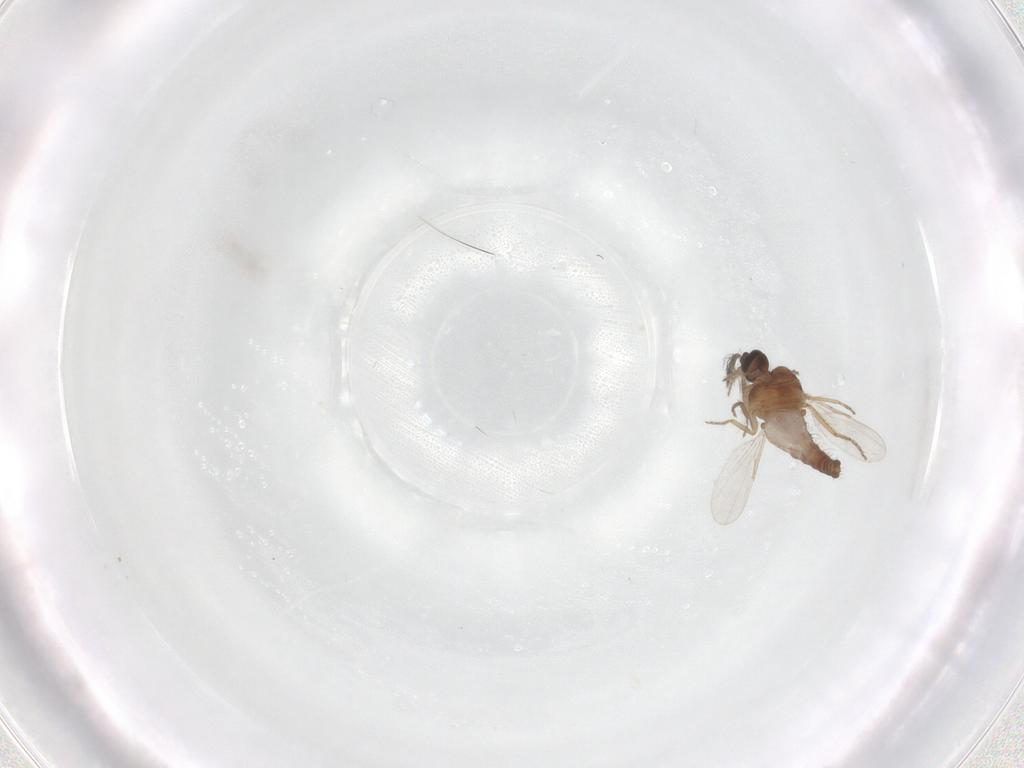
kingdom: Animalia
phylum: Arthropoda
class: Insecta
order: Diptera
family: Ceratopogonidae
